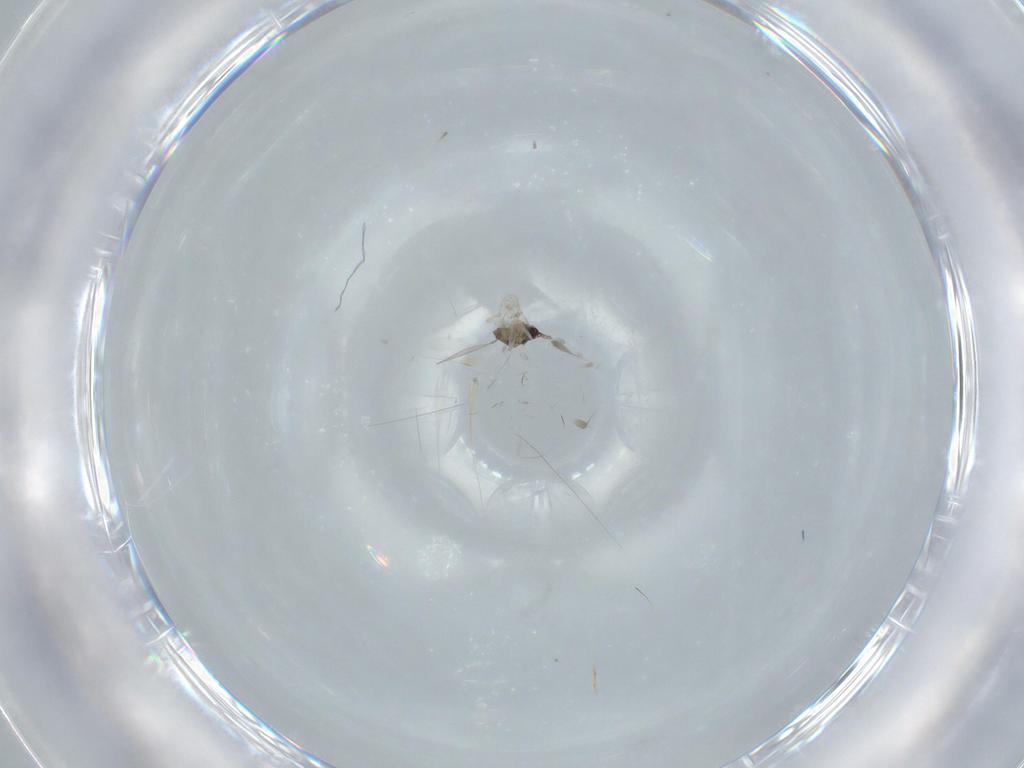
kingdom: Animalia
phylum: Arthropoda
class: Insecta
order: Diptera
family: Cecidomyiidae
